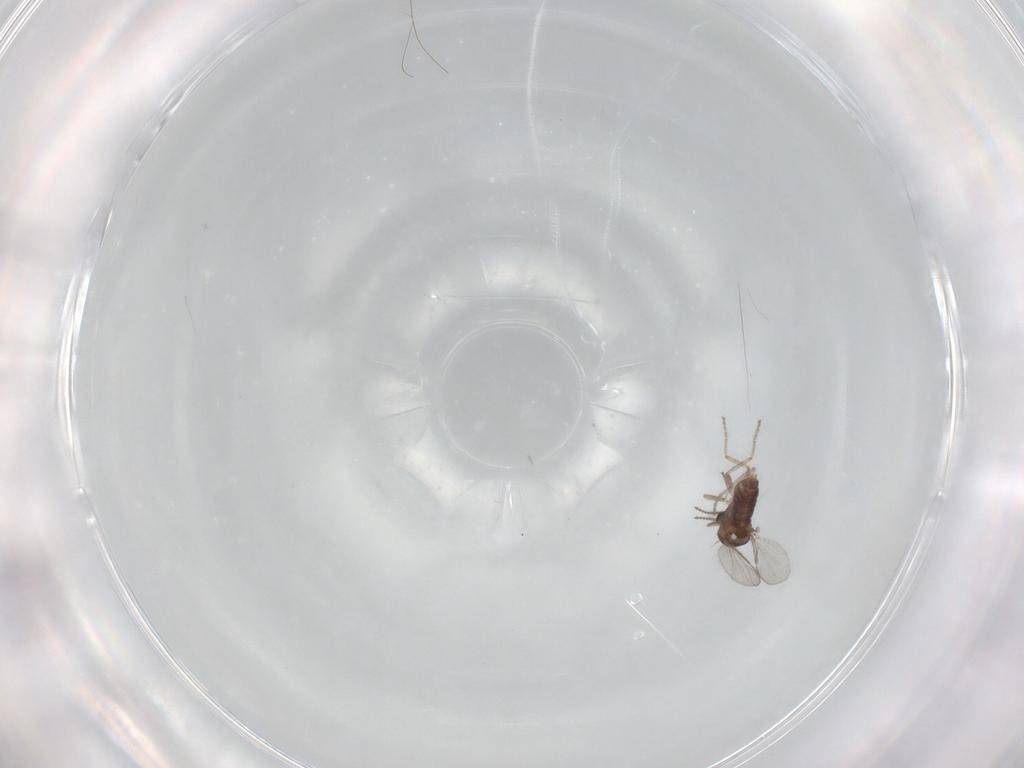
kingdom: Animalia
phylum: Arthropoda
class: Insecta
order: Diptera
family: Ceratopogonidae
